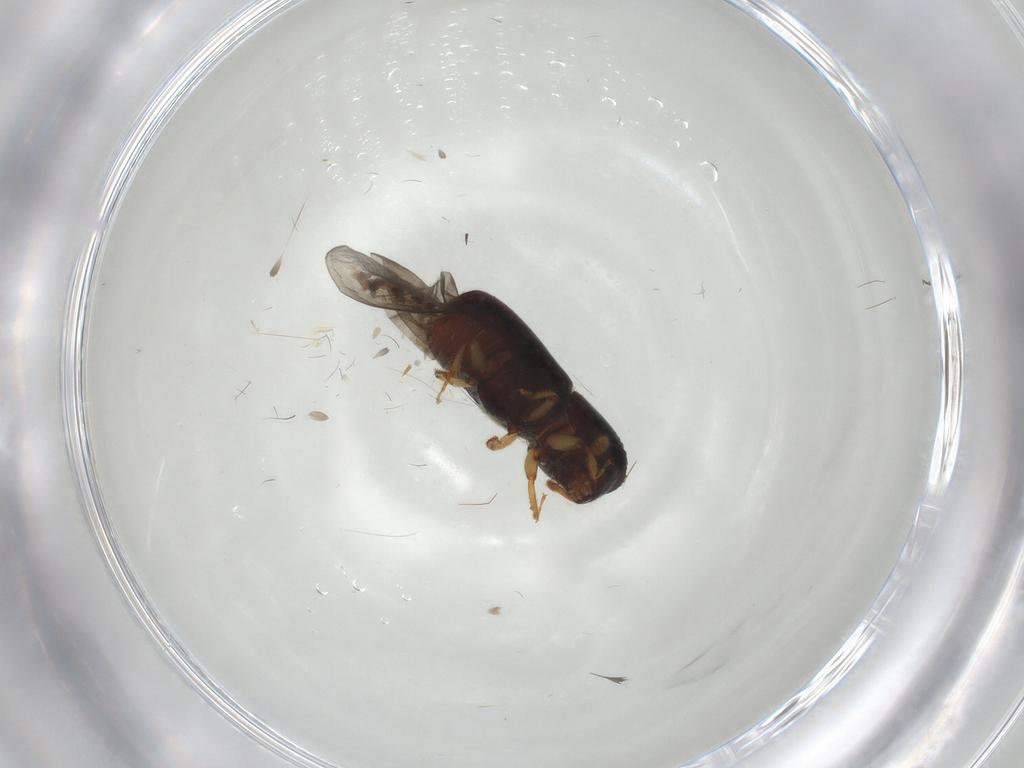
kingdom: Animalia
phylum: Arthropoda
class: Insecta
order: Coleoptera
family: Curculionidae
